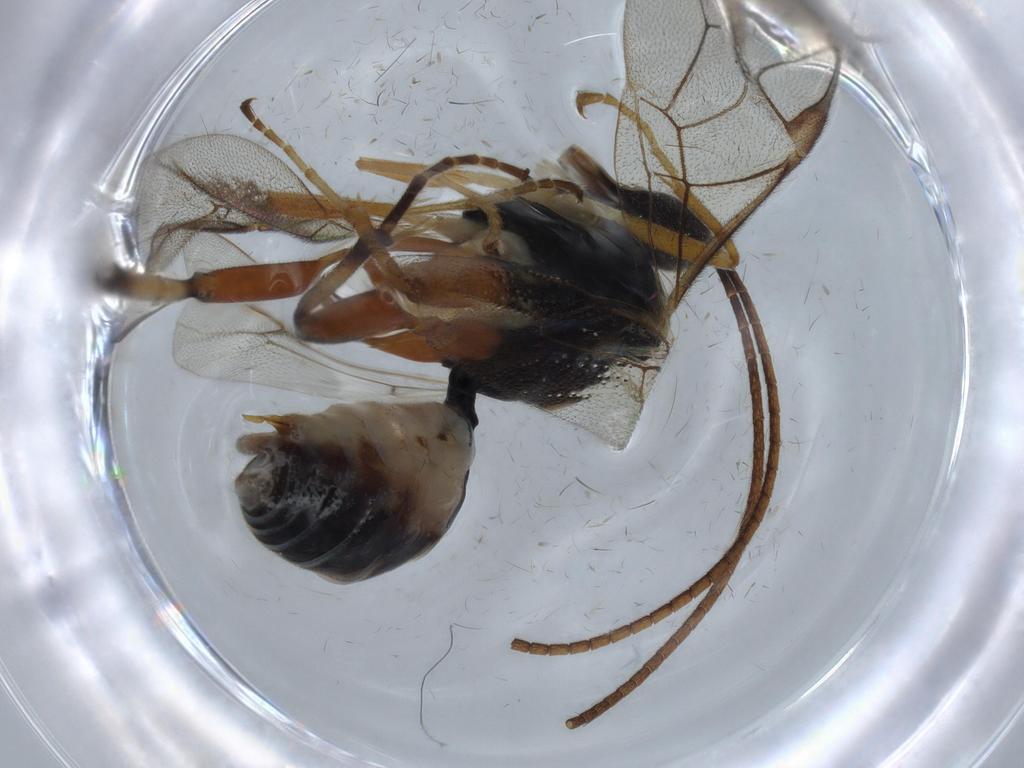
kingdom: Animalia
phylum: Arthropoda
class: Insecta
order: Hymenoptera
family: Ichneumonidae
